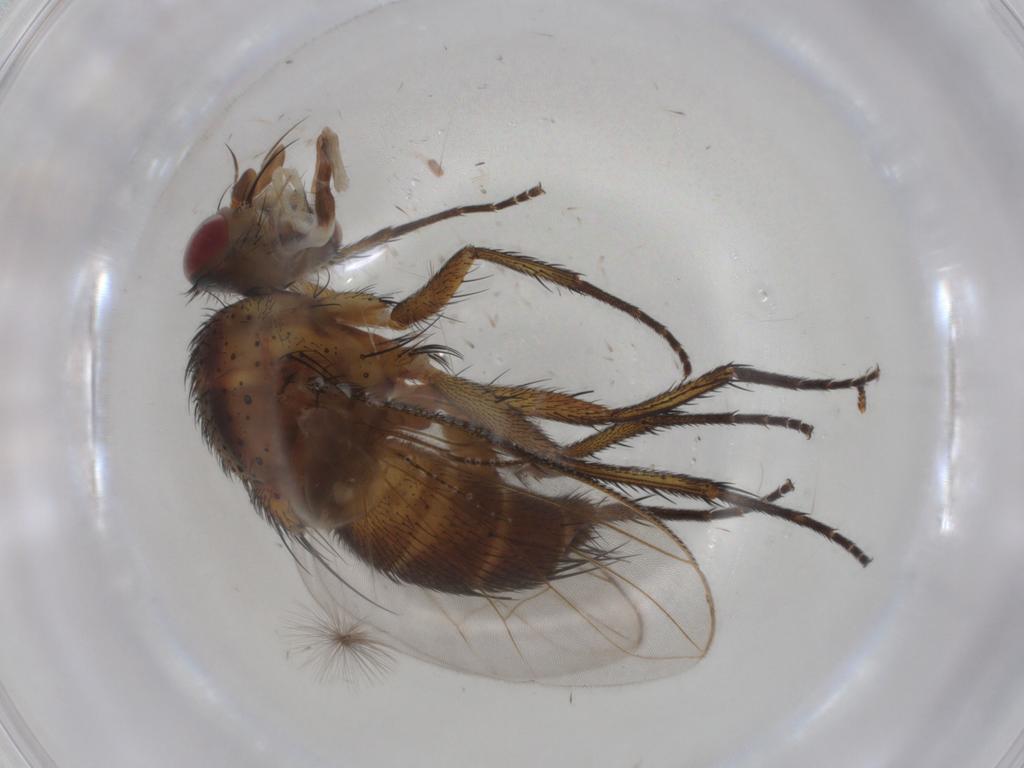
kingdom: Animalia
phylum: Arthropoda
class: Insecta
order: Diptera
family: Tachinidae
